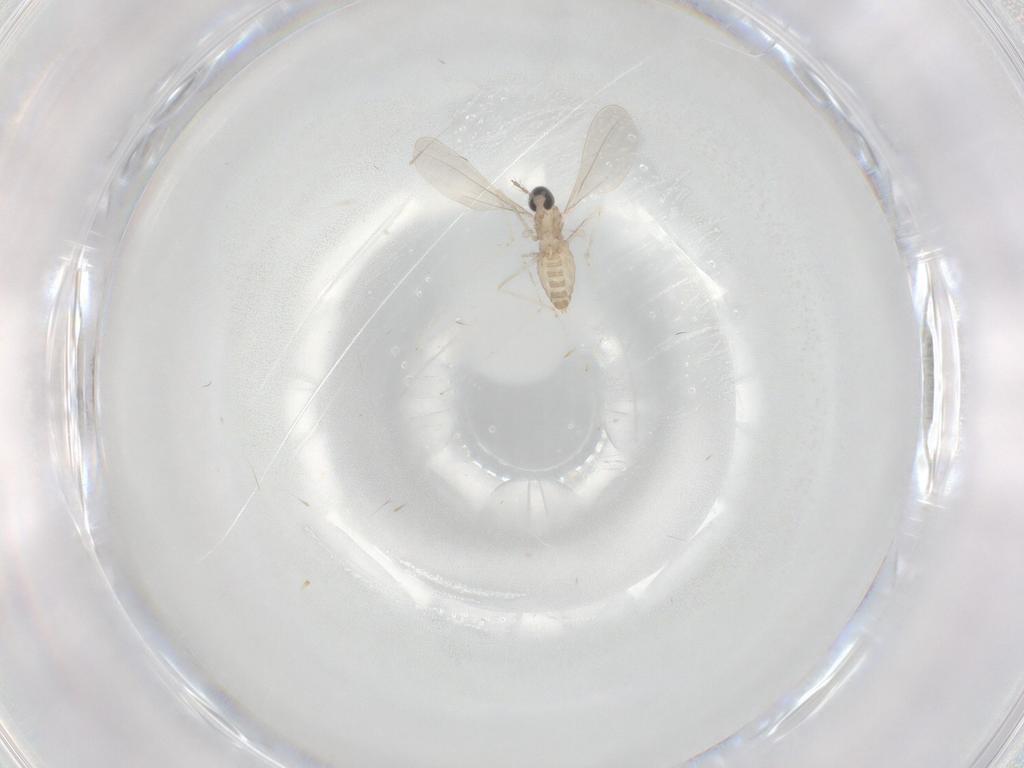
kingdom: Animalia
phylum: Arthropoda
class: Insecta
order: Diptera
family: Cecidomyiidae
